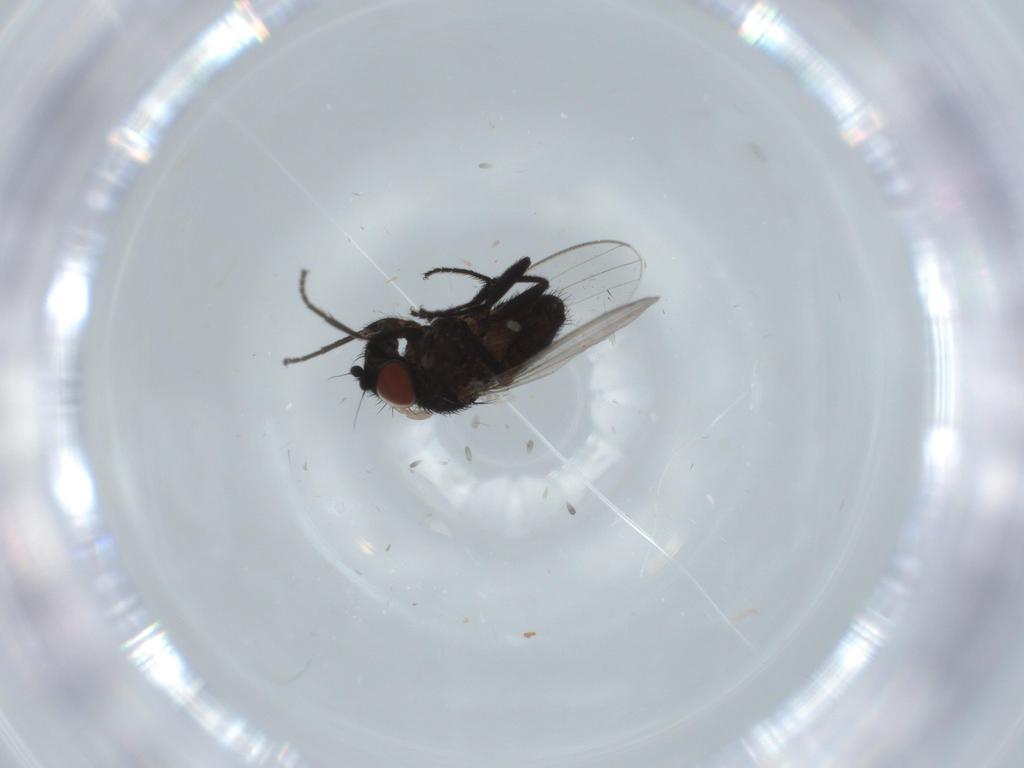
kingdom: Animalia
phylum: Arthropoda
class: Insecta
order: Diptera
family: Milichiidae
